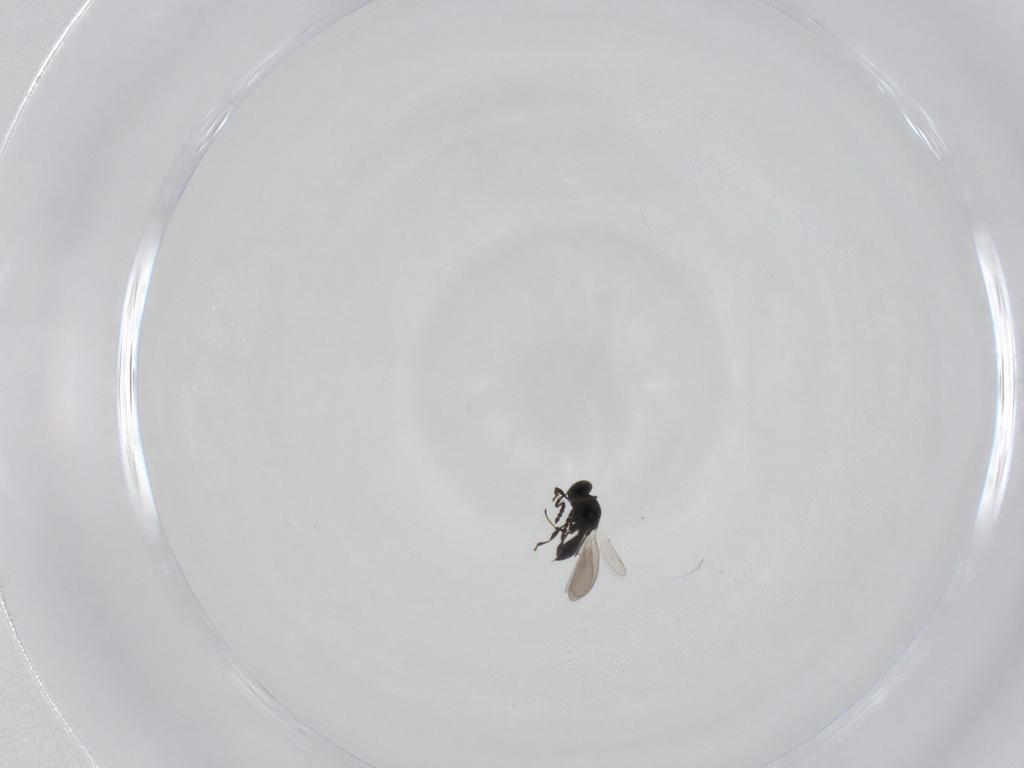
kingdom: Animalia
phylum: Arthropoda
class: Insecta
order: Hymenoptera
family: Platygastridae
